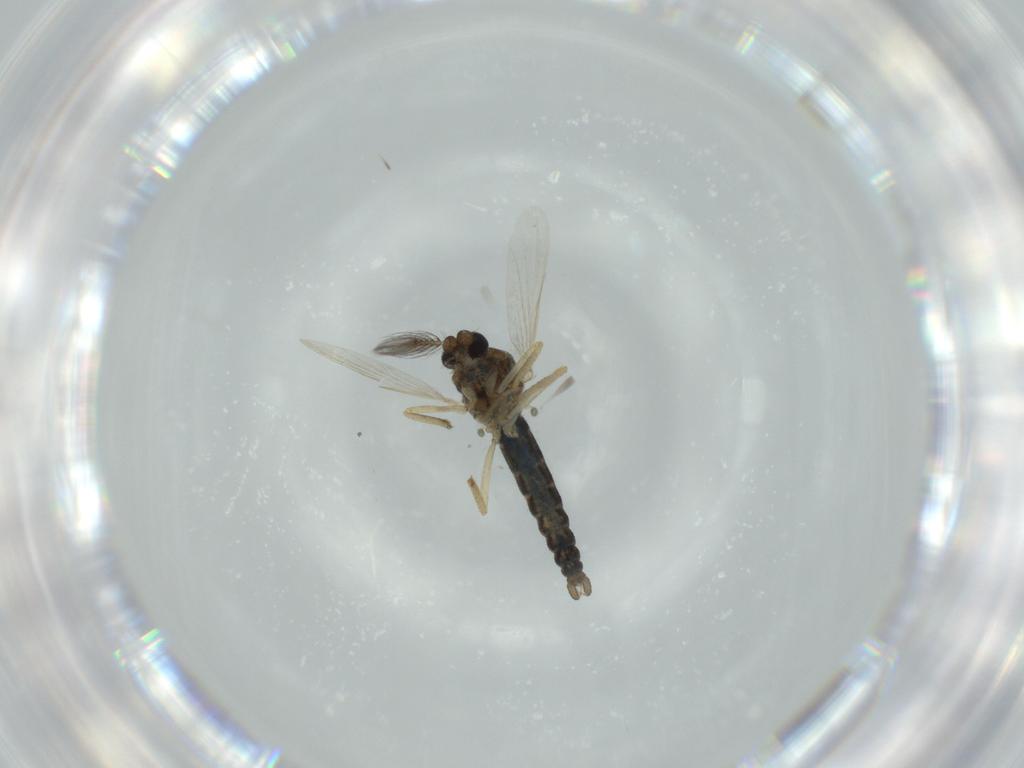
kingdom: Animalia
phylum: Arthropoda
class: Insecta
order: Diptera
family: Ceratopogonidae
